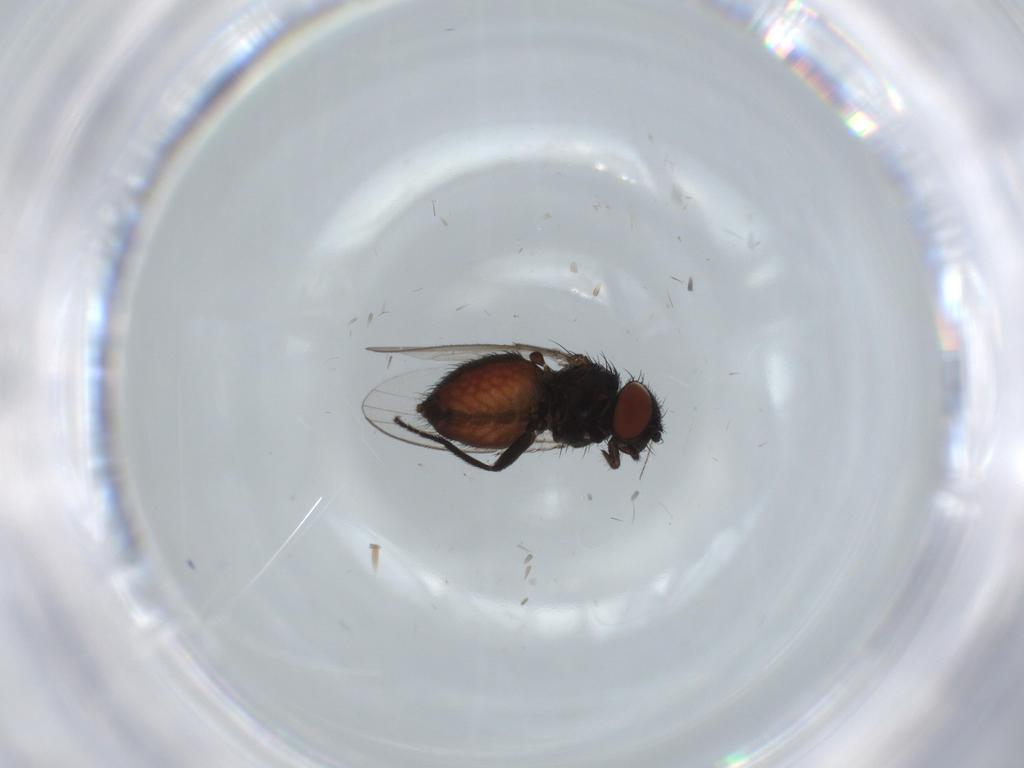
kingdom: Animalia
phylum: Arthropoda
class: Insecta
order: Diptera
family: Milichiidae
